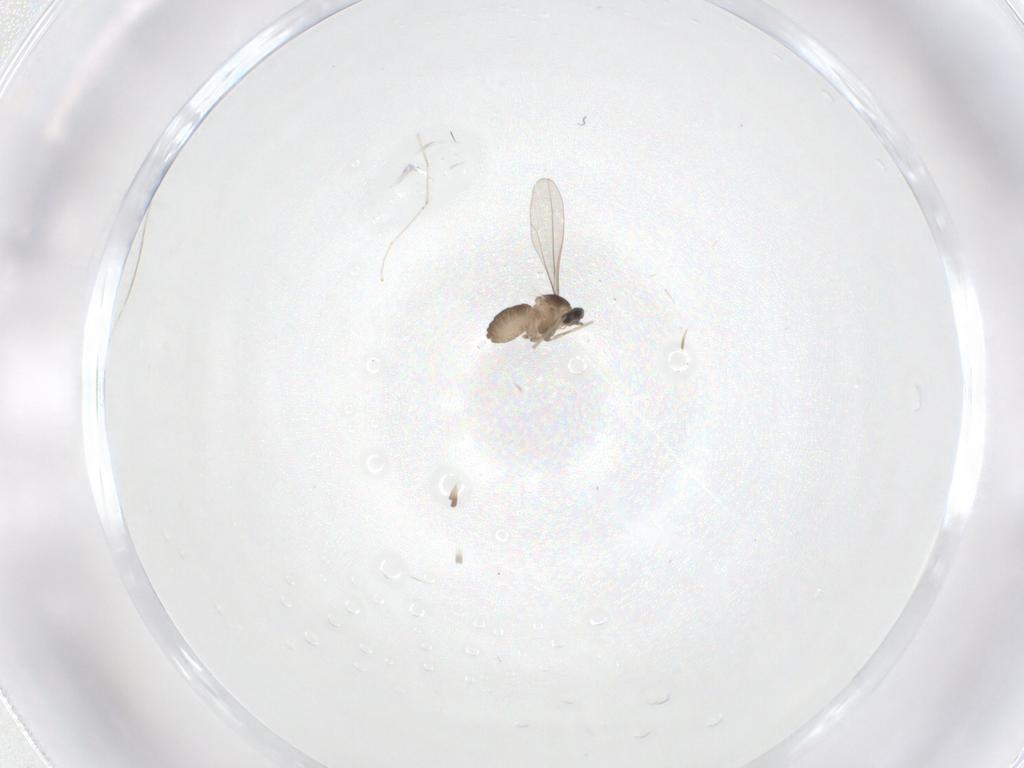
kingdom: Animalia
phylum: Arthropoda
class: Insecta
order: Diptera
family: Cecidomyiidae
